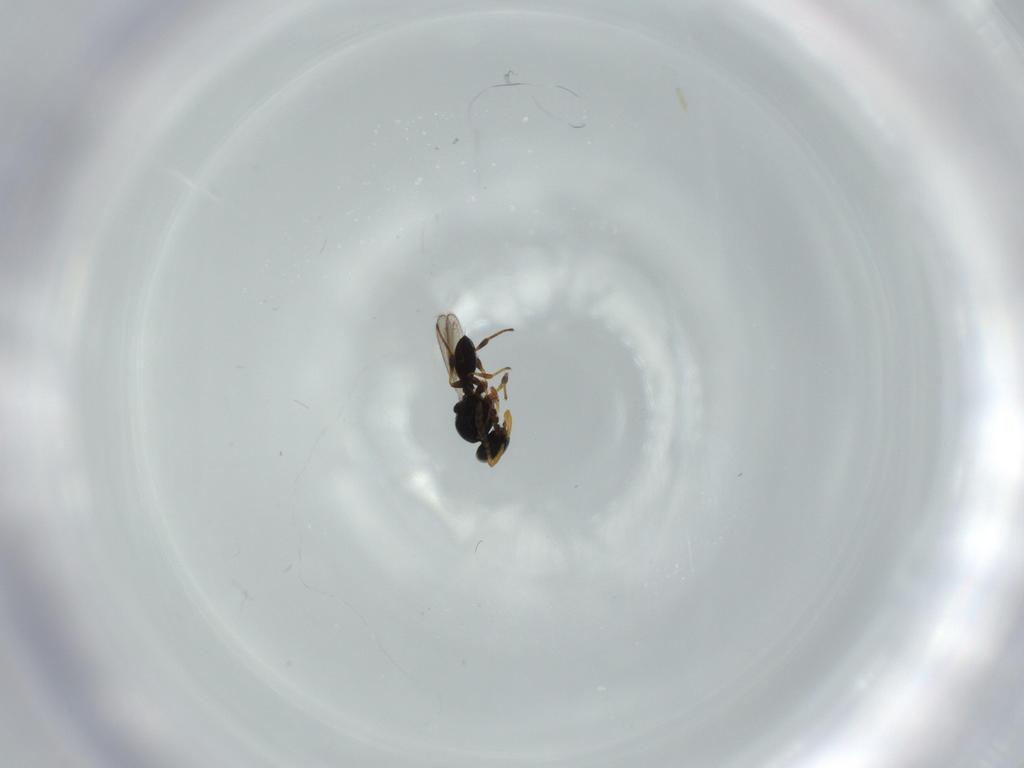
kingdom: Animalia
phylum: Arthropoda
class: Insecta
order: Hymenoptera
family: Platygastridae
